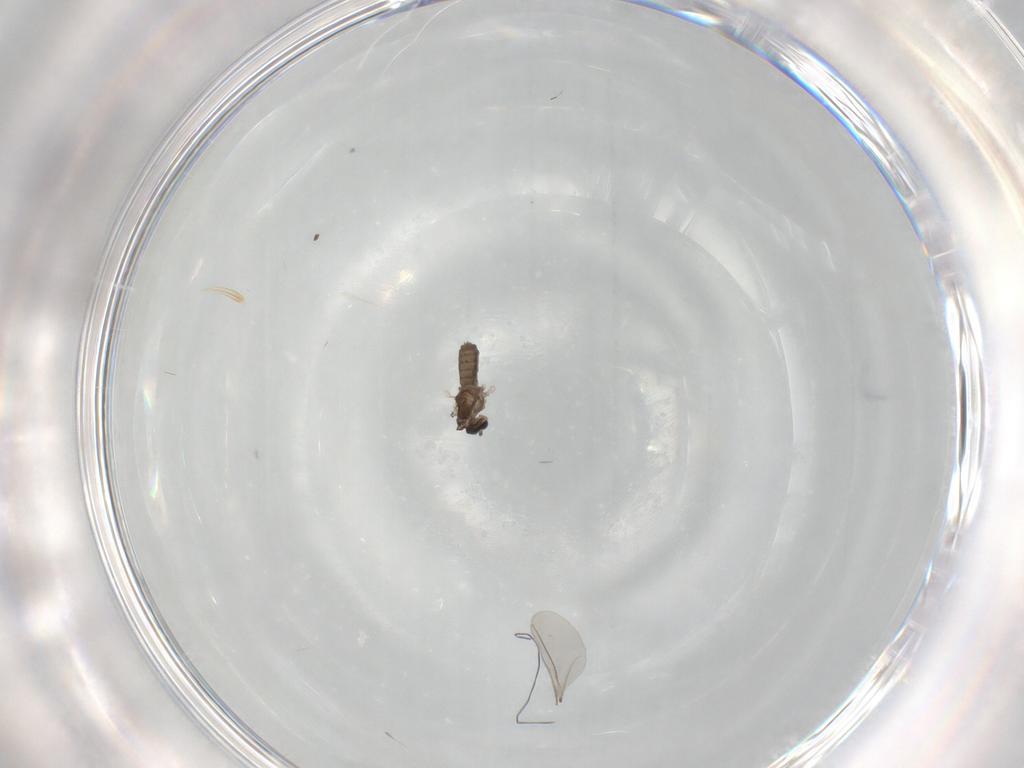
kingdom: Animalia
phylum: Arthropoda
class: Insecta
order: Diptera
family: Cecidomyiidae
